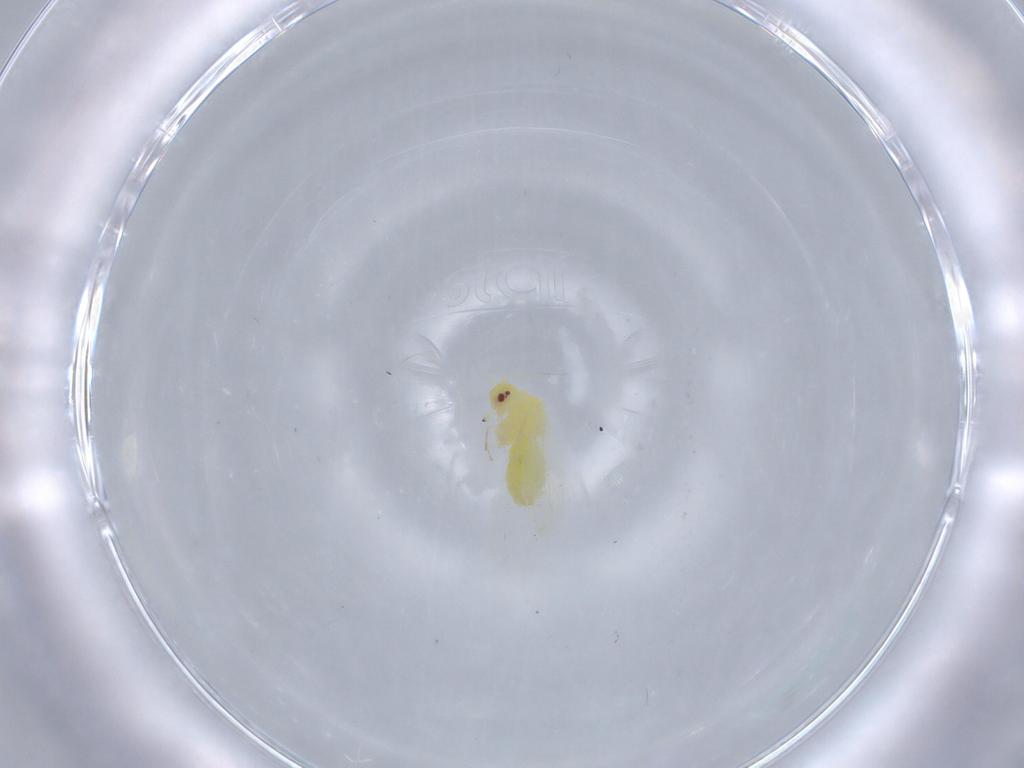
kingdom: Animalia
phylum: Arthropoda
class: Insecta
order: Hemiptera
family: Aleyrodidae
